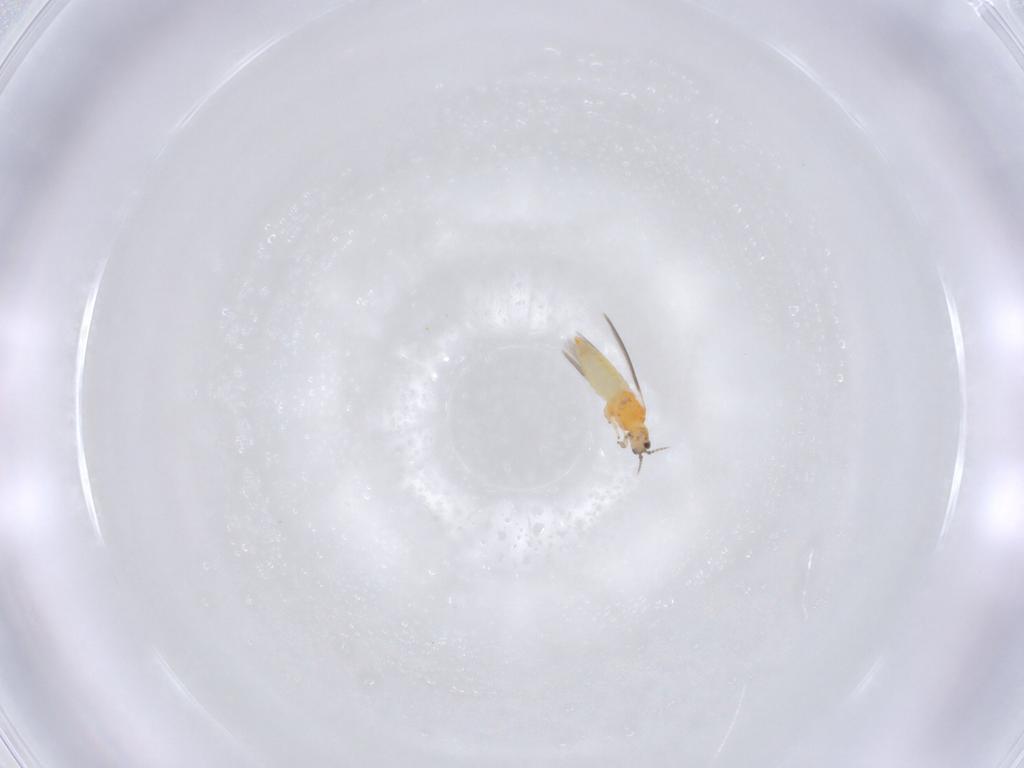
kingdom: Animalia
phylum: Arthropoda
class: Insecta
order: Thysanoptera
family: Thripidae
